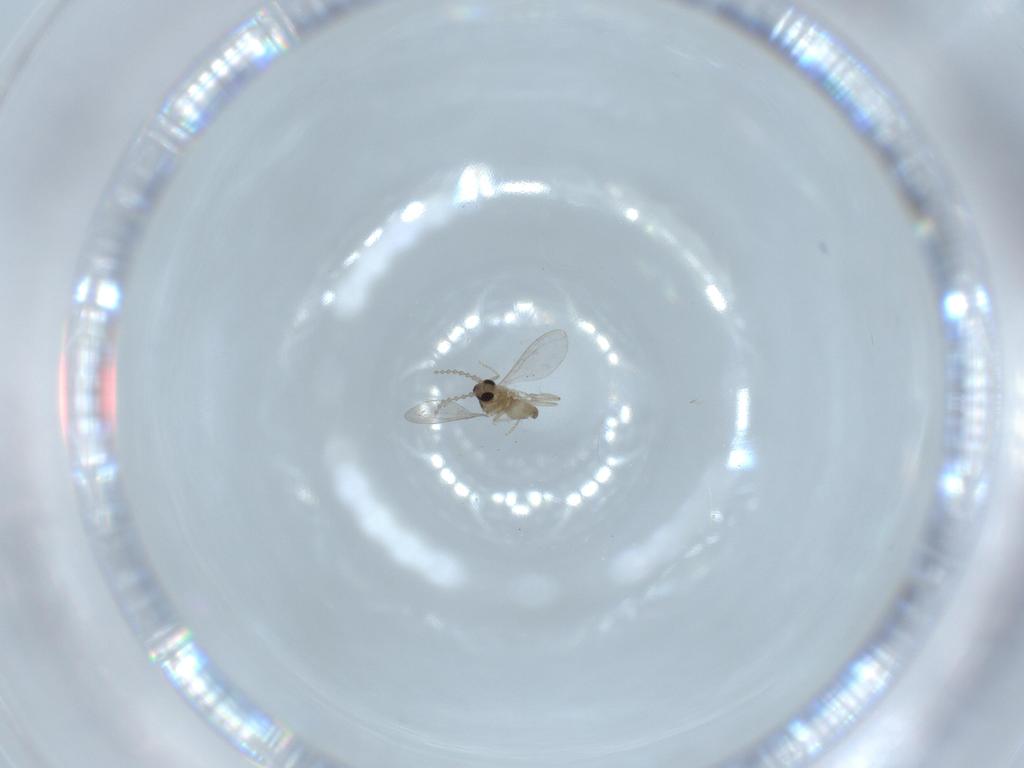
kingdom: Animalia
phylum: Arthropoda
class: Insecta
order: Diptera
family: Cecidomyiidae
